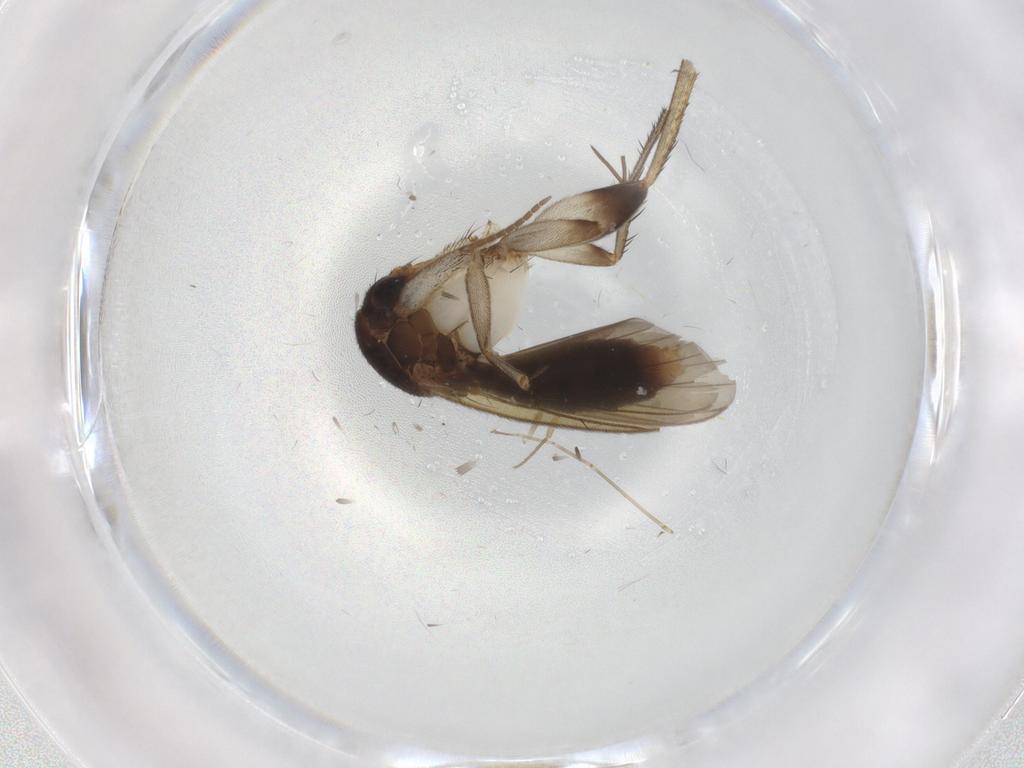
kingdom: Animalia
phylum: Arthropoda
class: Insecta
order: Diptera
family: Mycetophilidae
